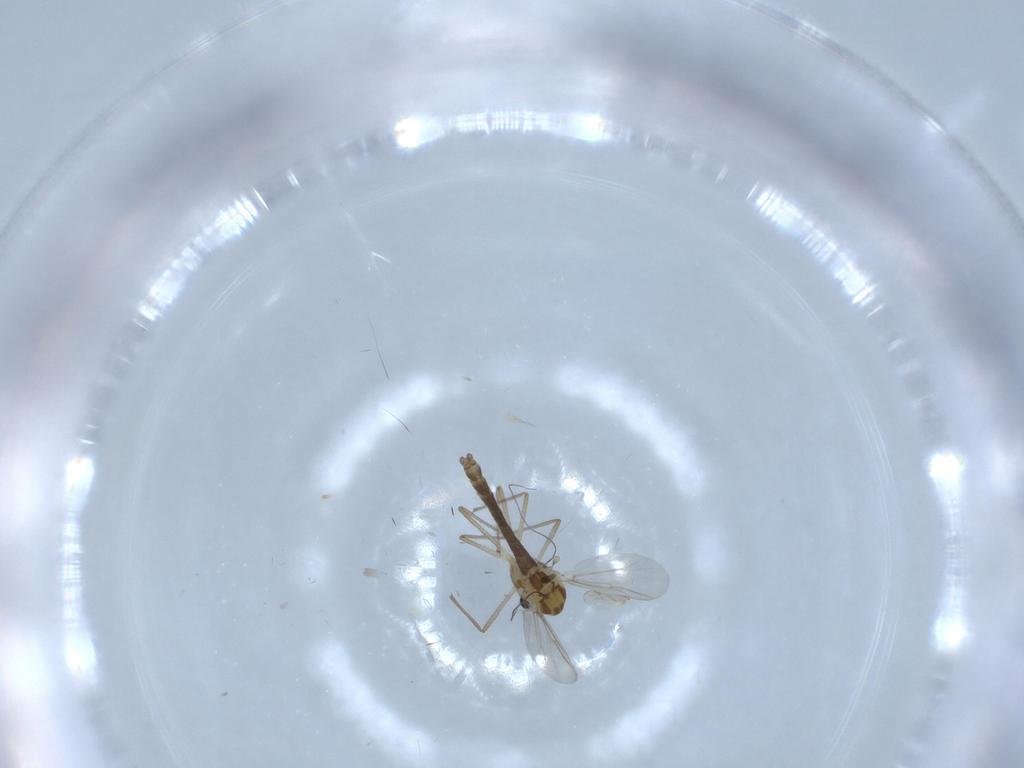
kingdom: Animalia
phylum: Arthropoda
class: Insecta
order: Diptera
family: Chironomidae
